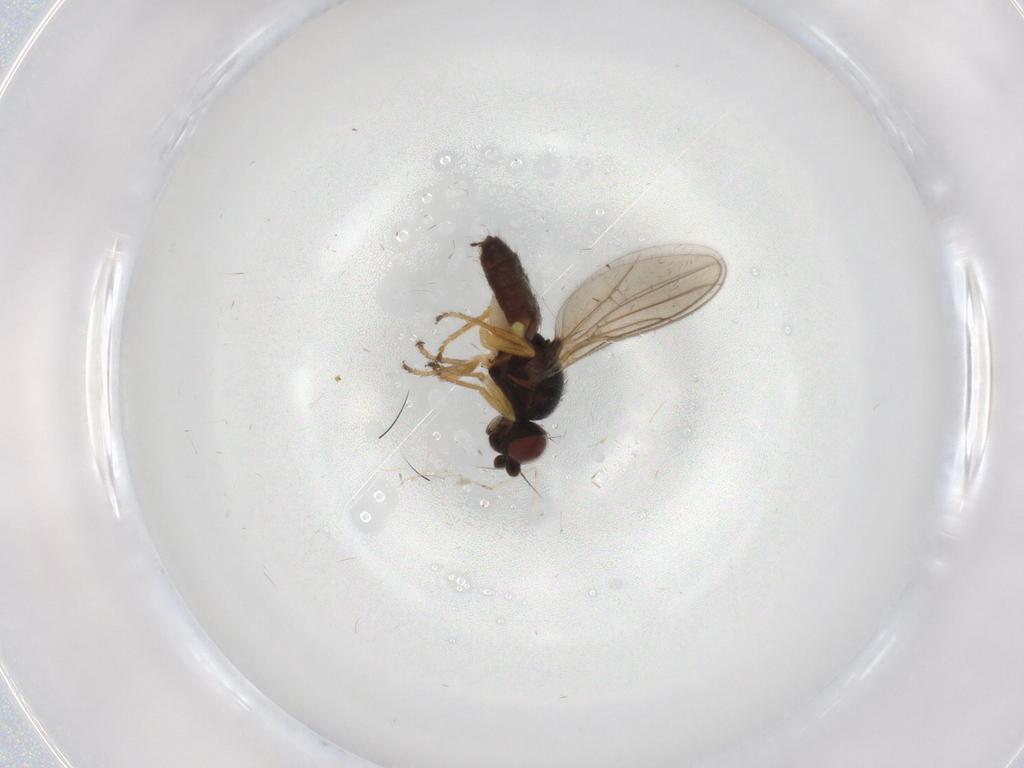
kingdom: Animalia
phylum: Arthropoda
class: Insecta
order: Diptera
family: Chloropidae
